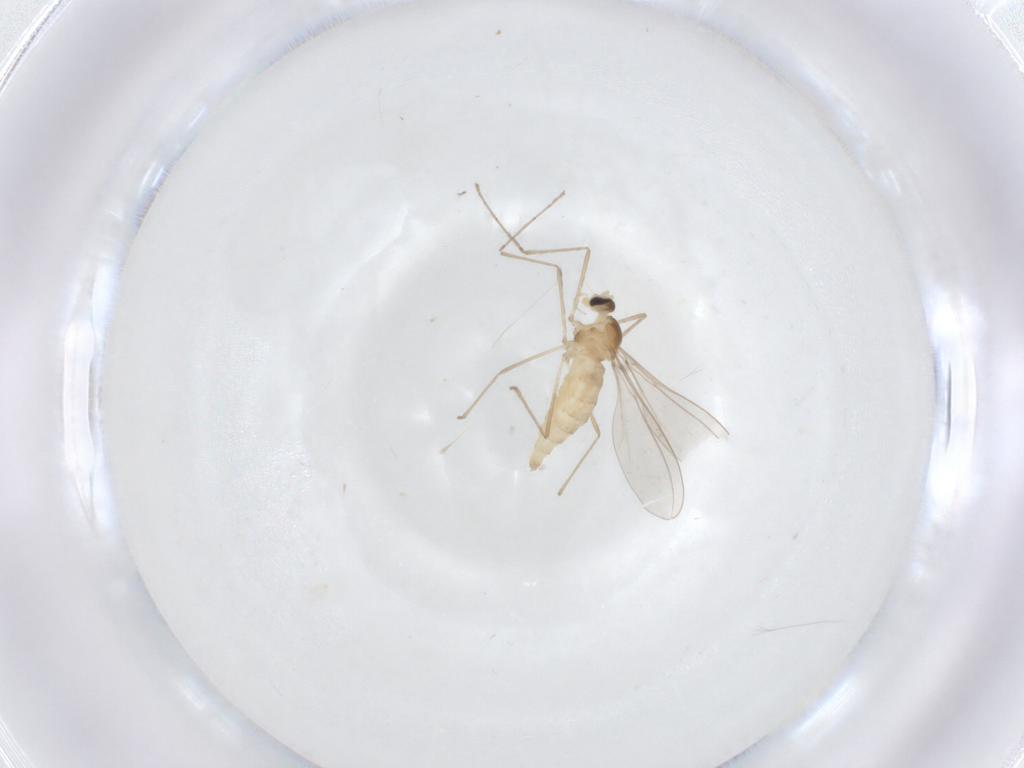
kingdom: Animalia
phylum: Arthropoda
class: Insecta
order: Diptera
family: Cecidomyiidae
